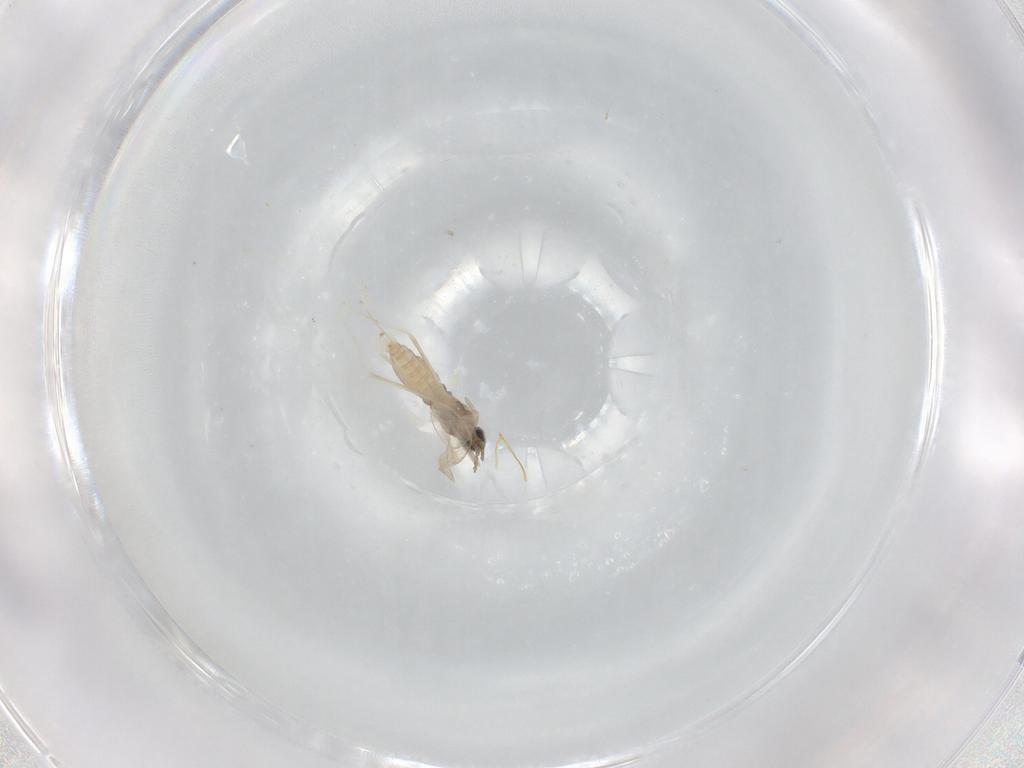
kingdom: Animalia
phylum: Arthropoda
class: Insecta
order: Diptera
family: Cecidomyiidae
